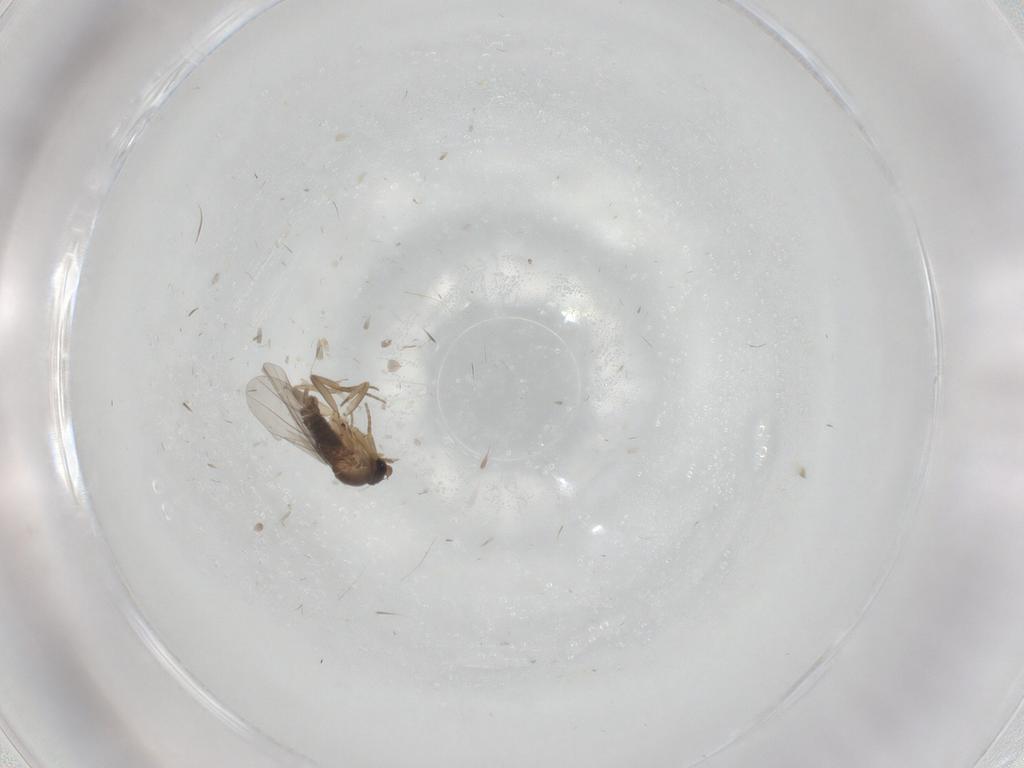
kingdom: Animalia
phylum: Arthropoda
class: Insecta
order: Diptera
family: Cecidomyiidae
